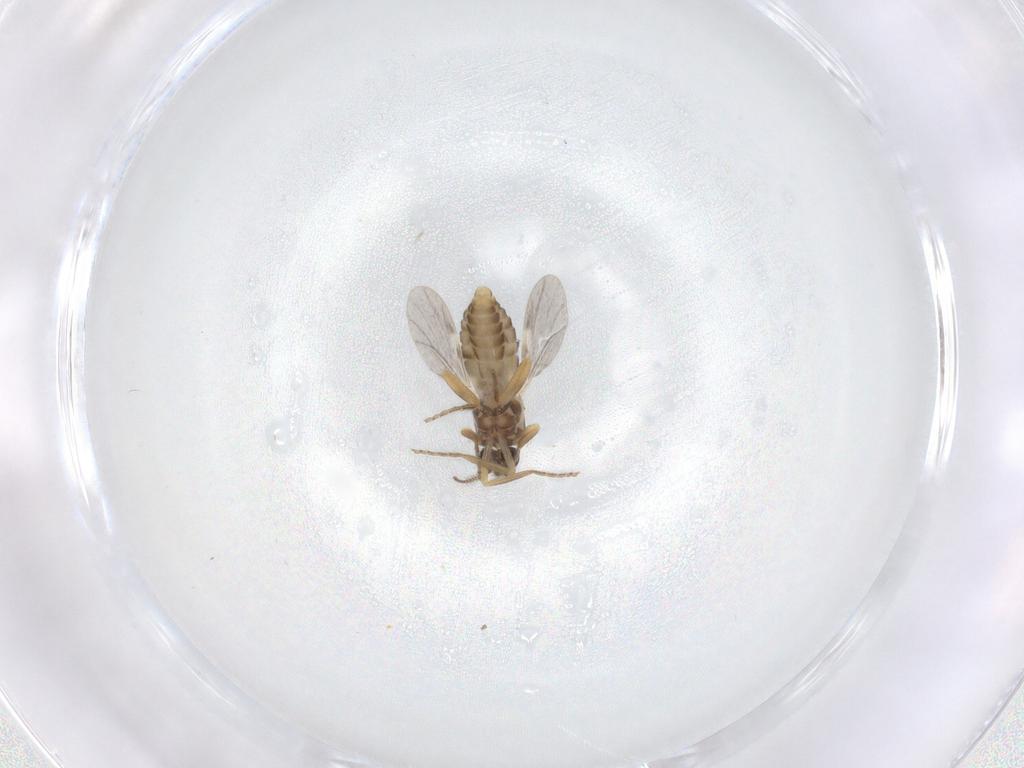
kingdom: Animalia
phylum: Arthropoda
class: Insecta
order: Diptera
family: Ceratopogonidae
